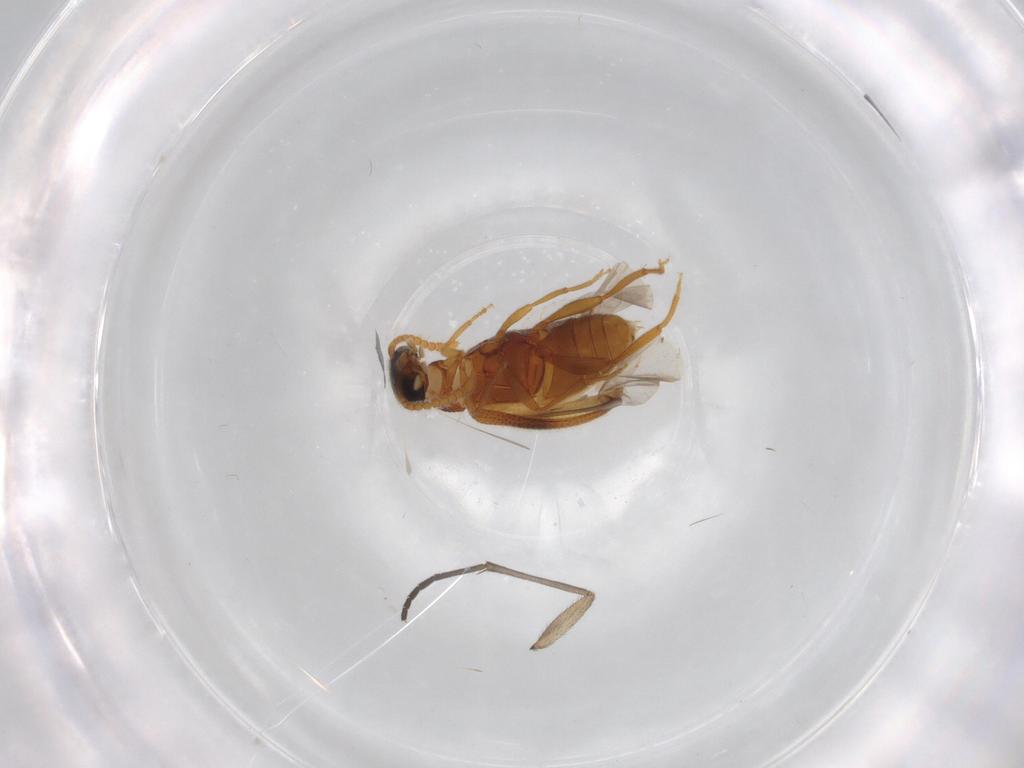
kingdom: Animalia
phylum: Arthropoda
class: Insecta
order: Coleoptera
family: Aderidae
